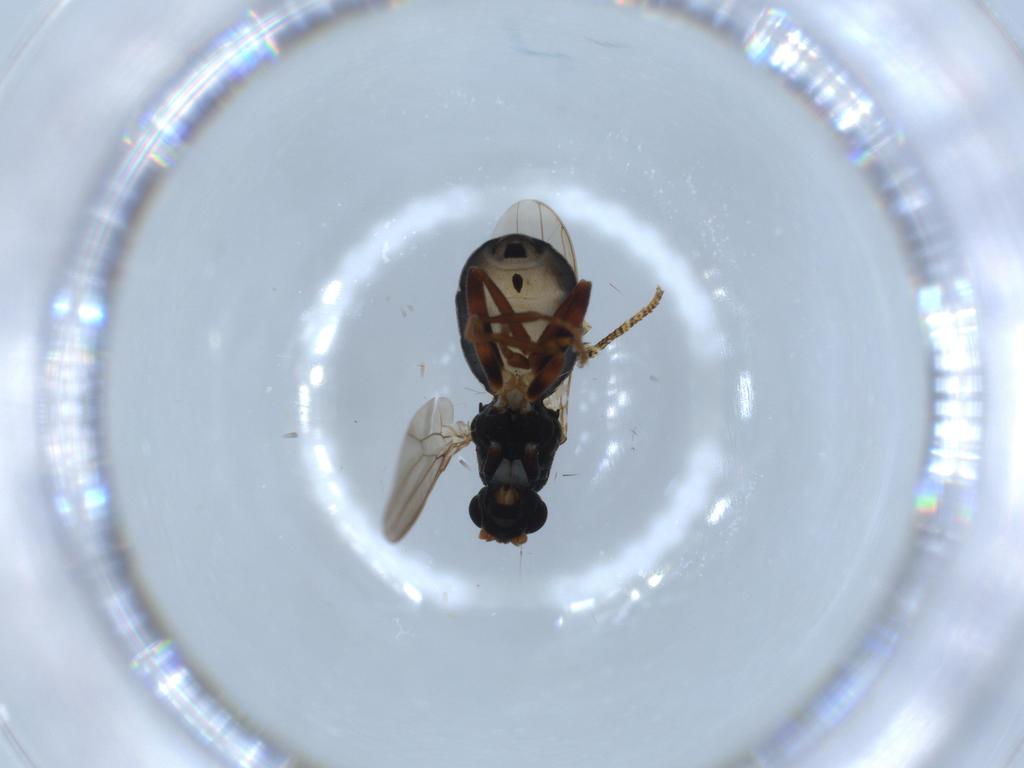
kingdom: Animalia
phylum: Arthropoda
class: Insecta
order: Diptera
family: Sphaeroceridae
